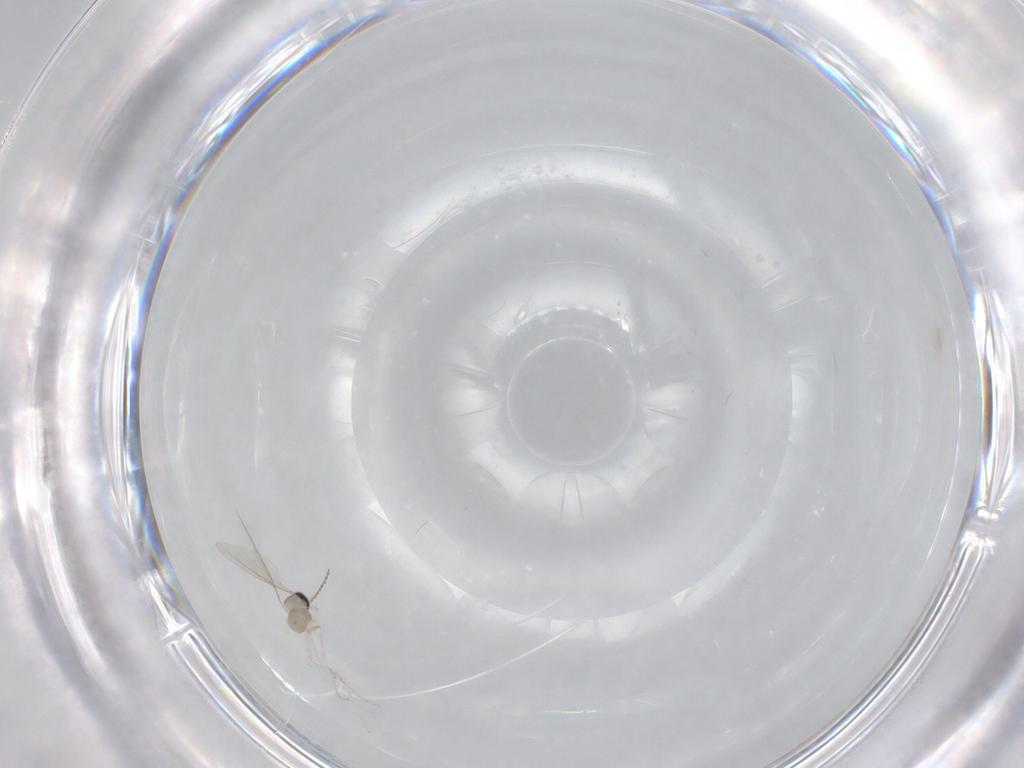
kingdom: Animalia
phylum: Arthropoda
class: Insecta
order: Diptera
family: Cecidomyiidae
